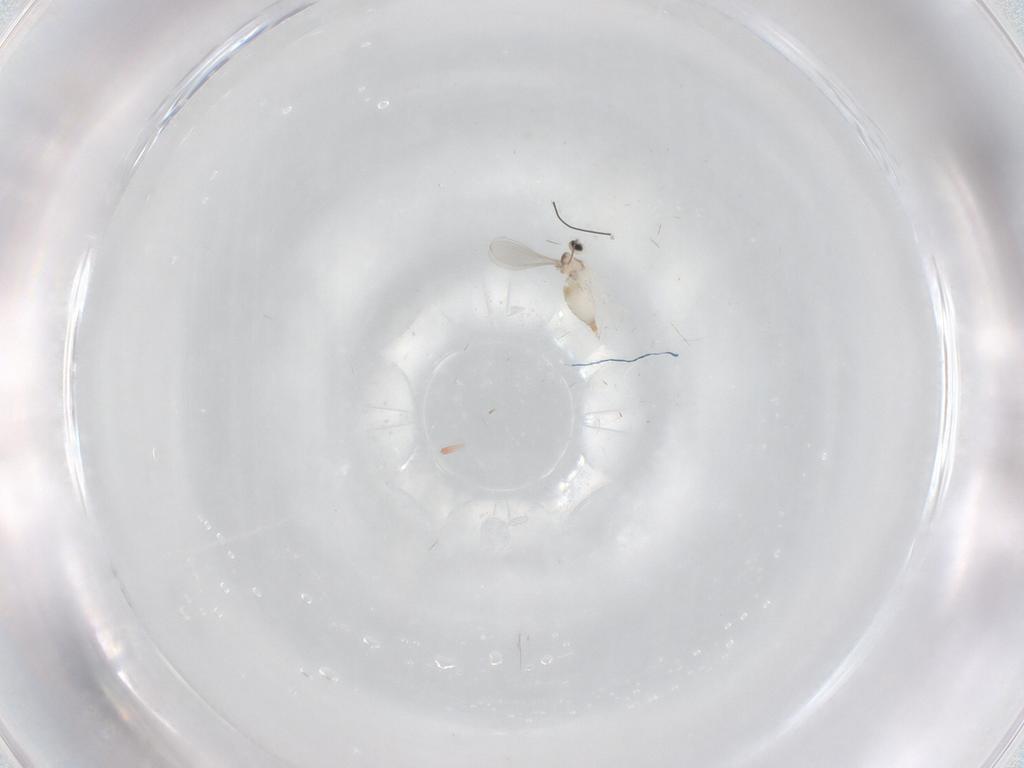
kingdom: Animalia
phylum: Arthropoda
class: Insecta
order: Diptera
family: Cecidomyiidae
